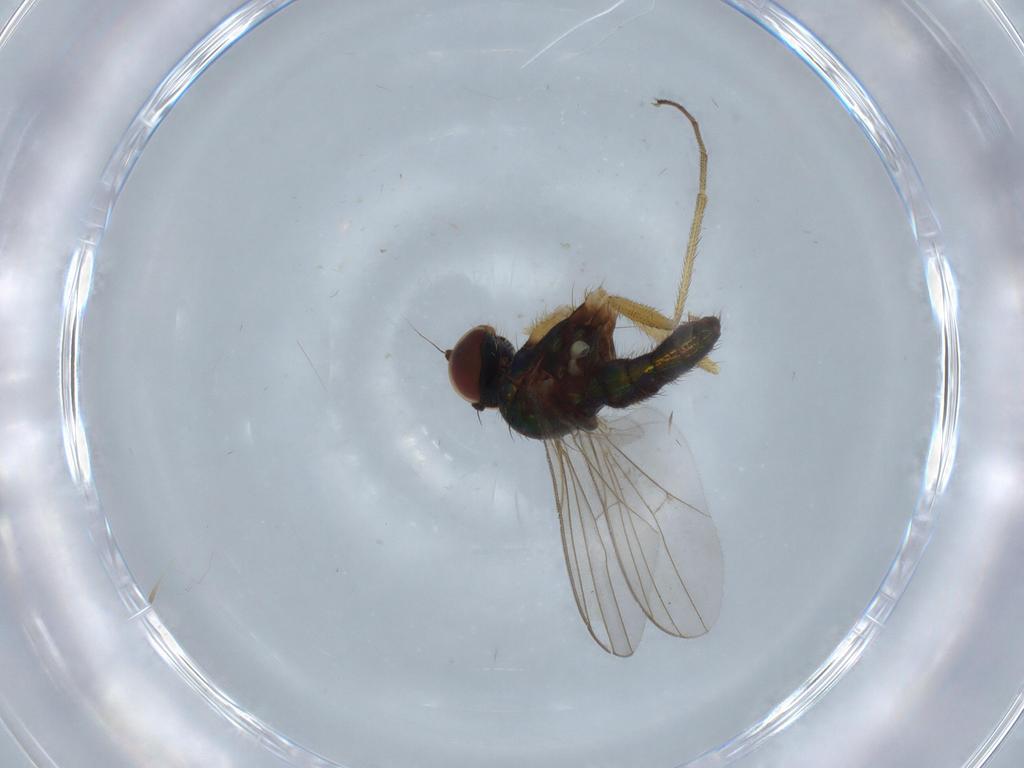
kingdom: Animalia
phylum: Arthropoda
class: Insecta
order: Diptera
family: Dolichopodidae
